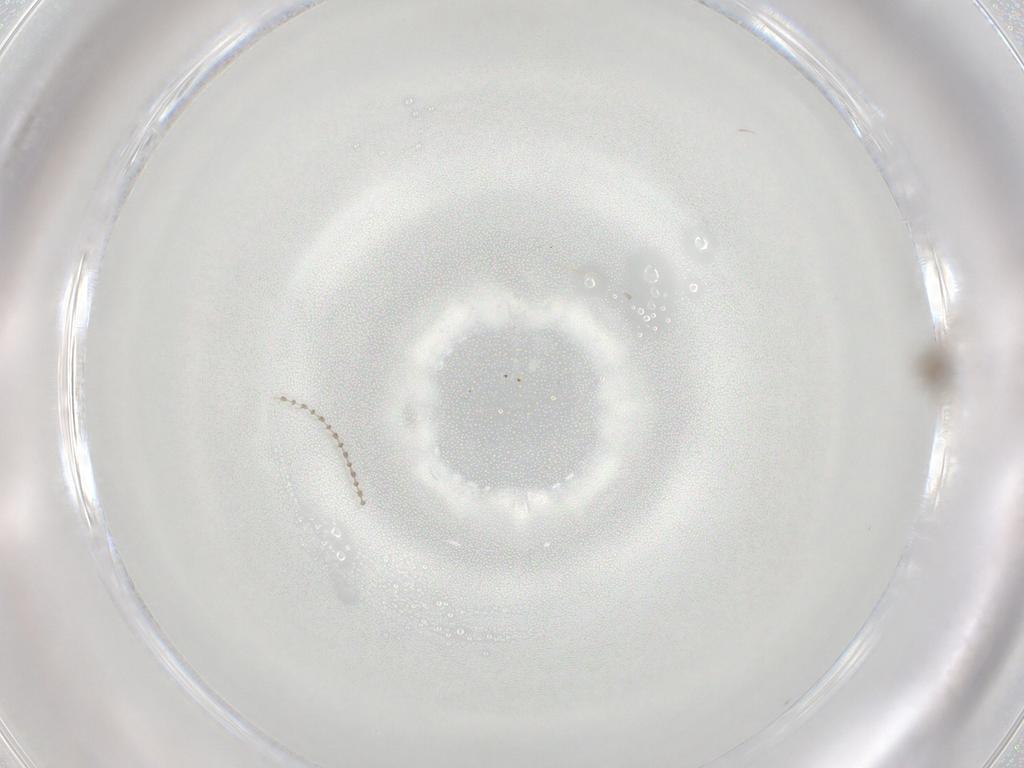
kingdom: Animalia
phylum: Arthropoda
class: Insecta
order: Diptera
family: Cecidomyiidae
